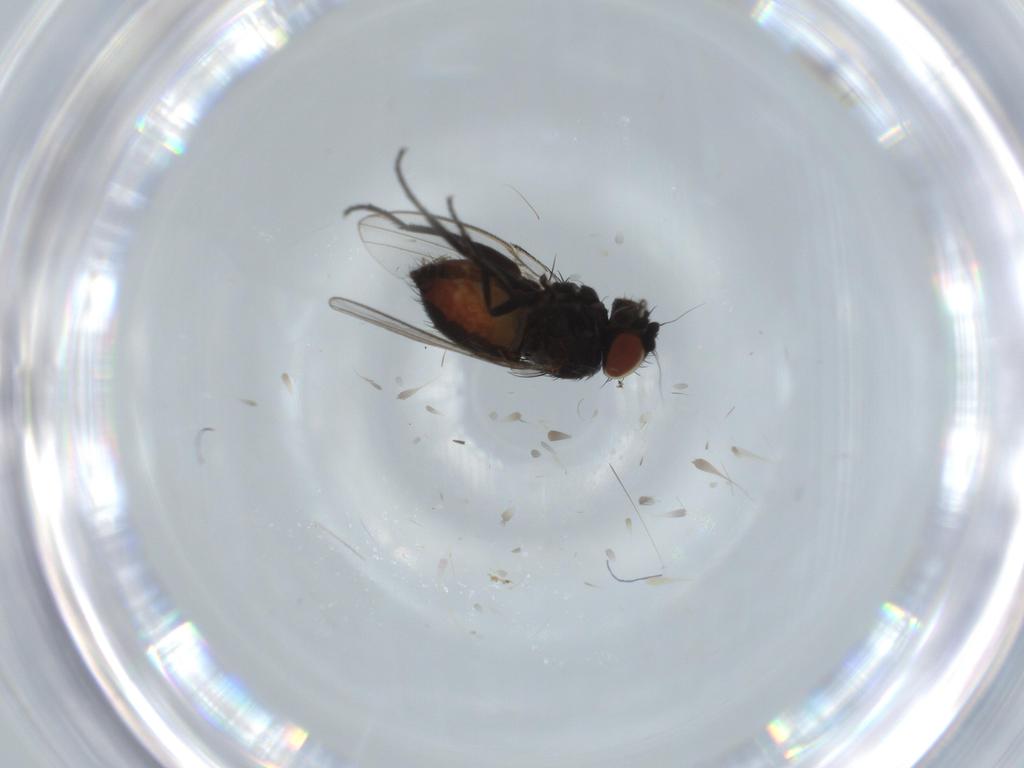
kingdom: Animalia
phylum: Arthropoda
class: Insecta
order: Diptera
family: Milichiidae
